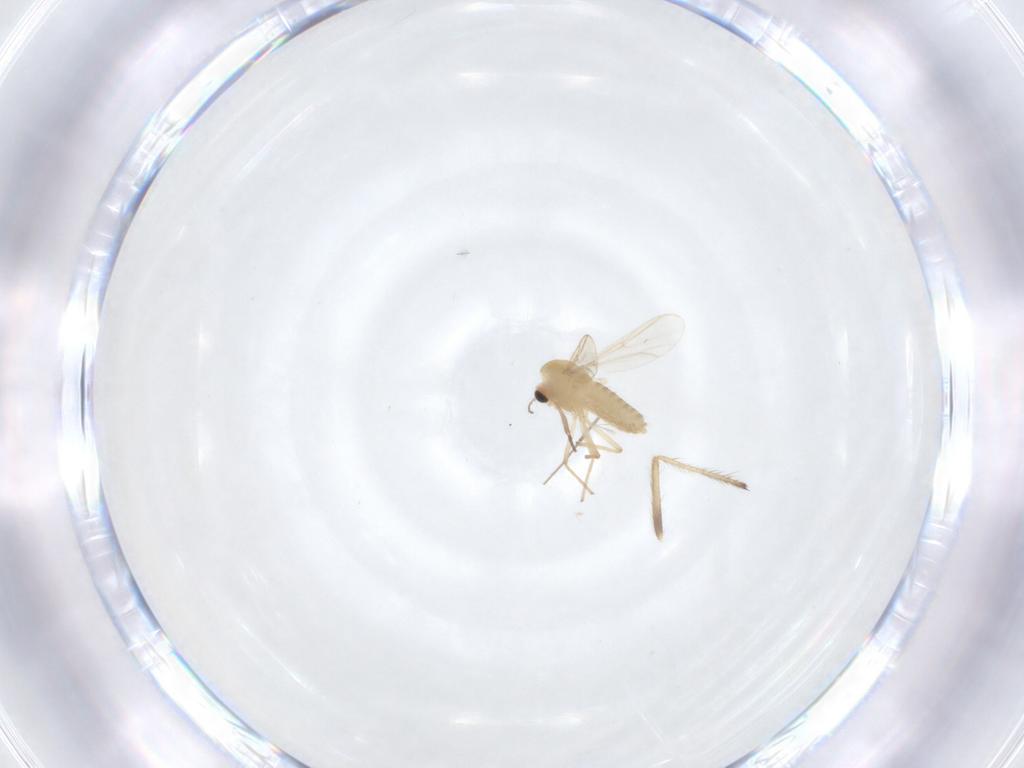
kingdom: Animalia
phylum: Arthropoda
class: Insecta
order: Diptera
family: Chironomidae
